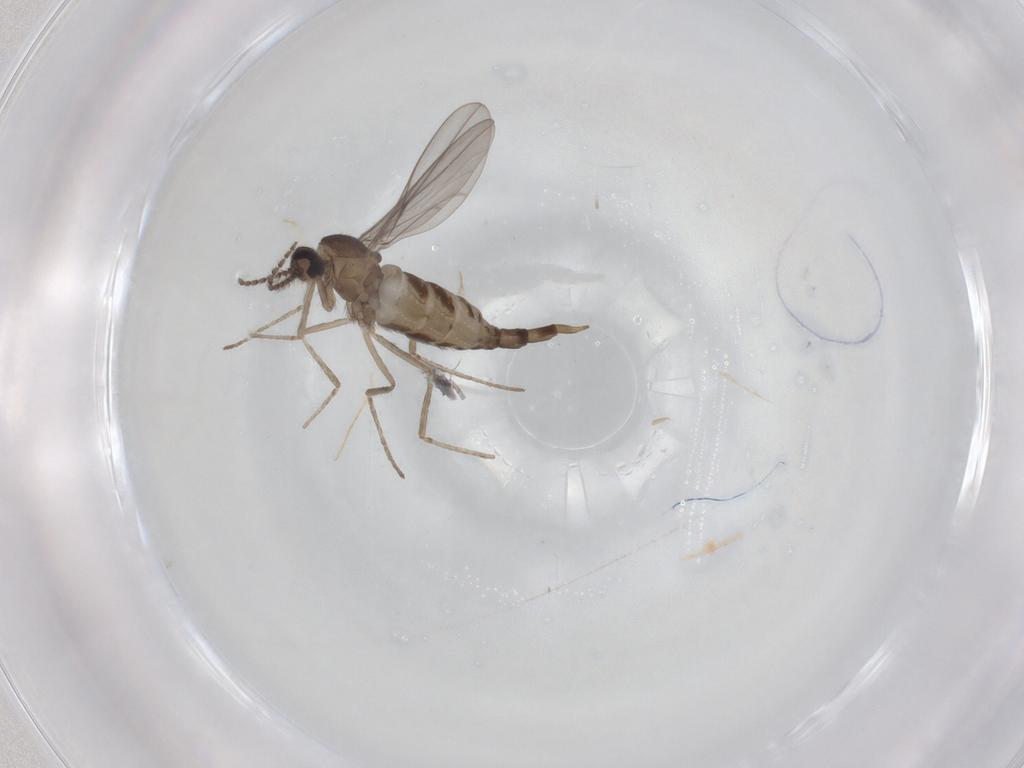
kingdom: Animalia
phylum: Arthropoda
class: Insecta
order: Diptera
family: Cecidomyiidae
